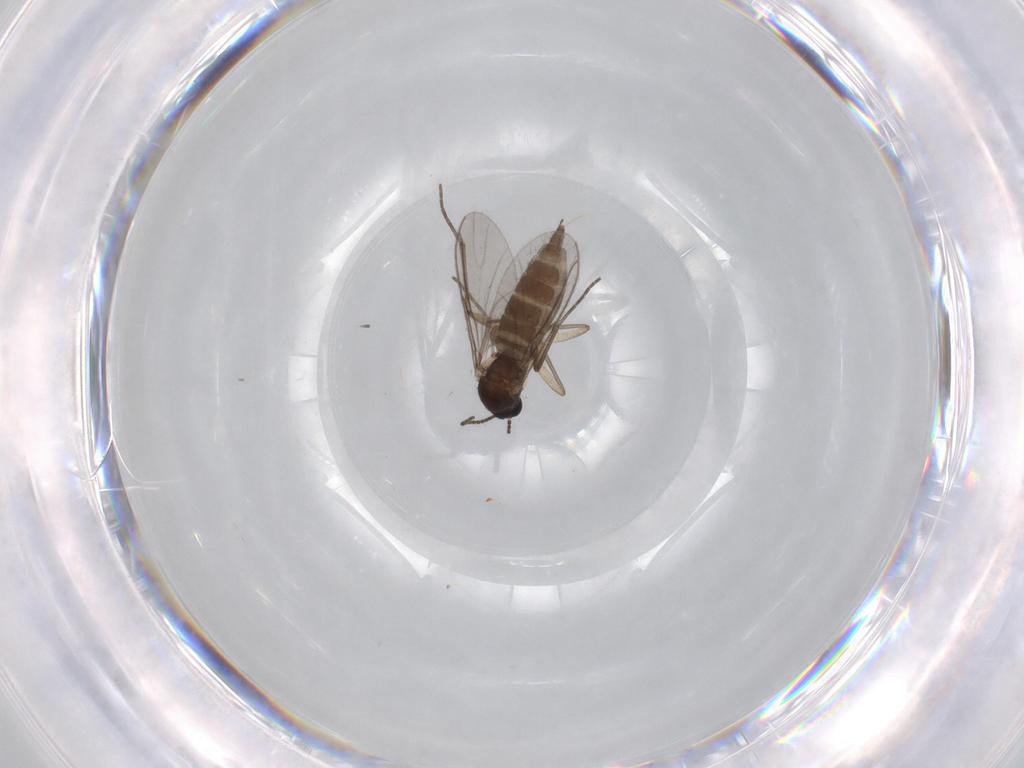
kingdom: Animalia
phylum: Arthropoda
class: Insecta
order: Diptera
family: Sciaridae
